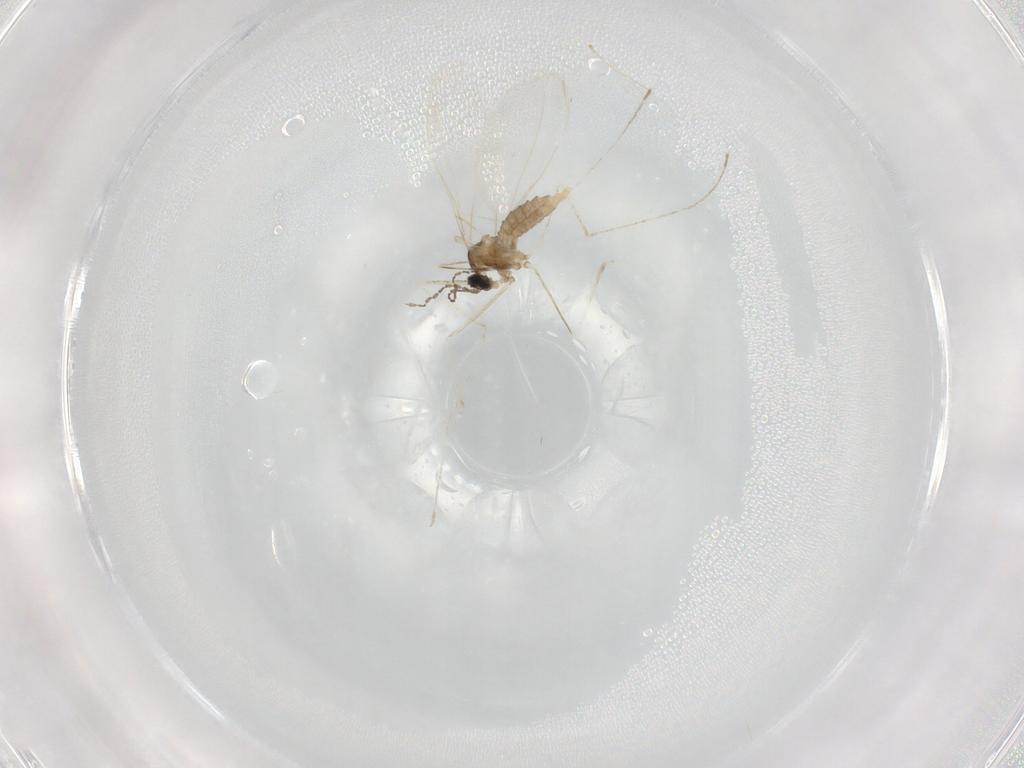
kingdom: Animalia
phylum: Arthropoda
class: Insecta
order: Diptera
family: Cecidomyiidae
